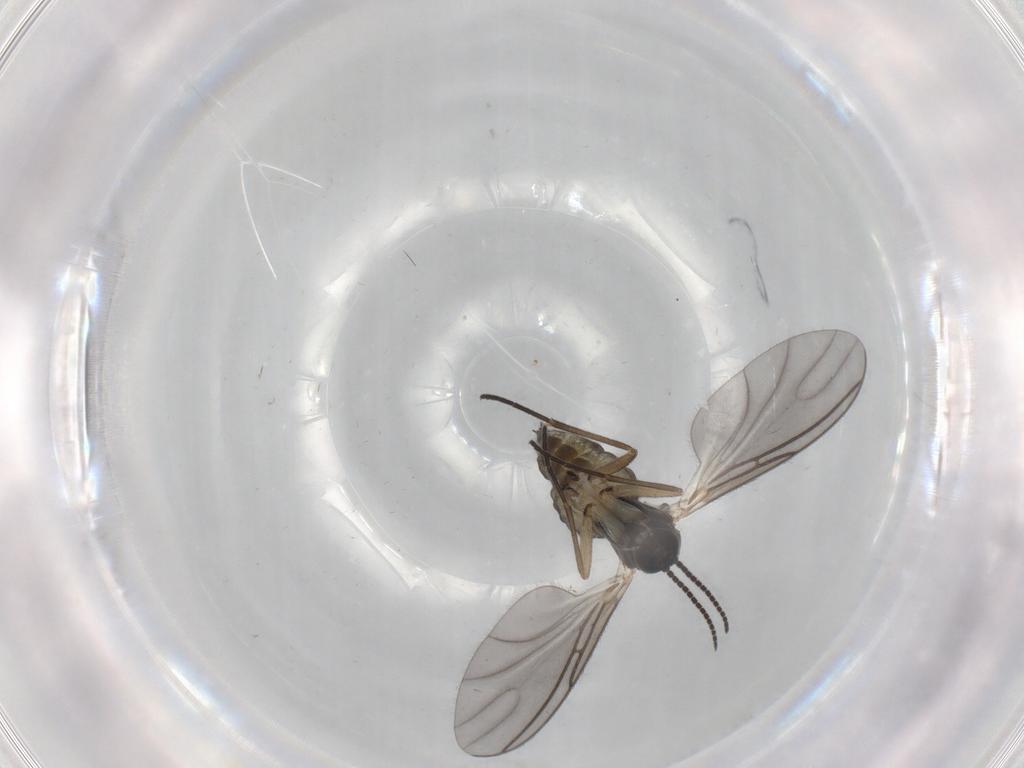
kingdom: Animalia
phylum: Arthropoda
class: Insecta
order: Diptera
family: Sciaridae
